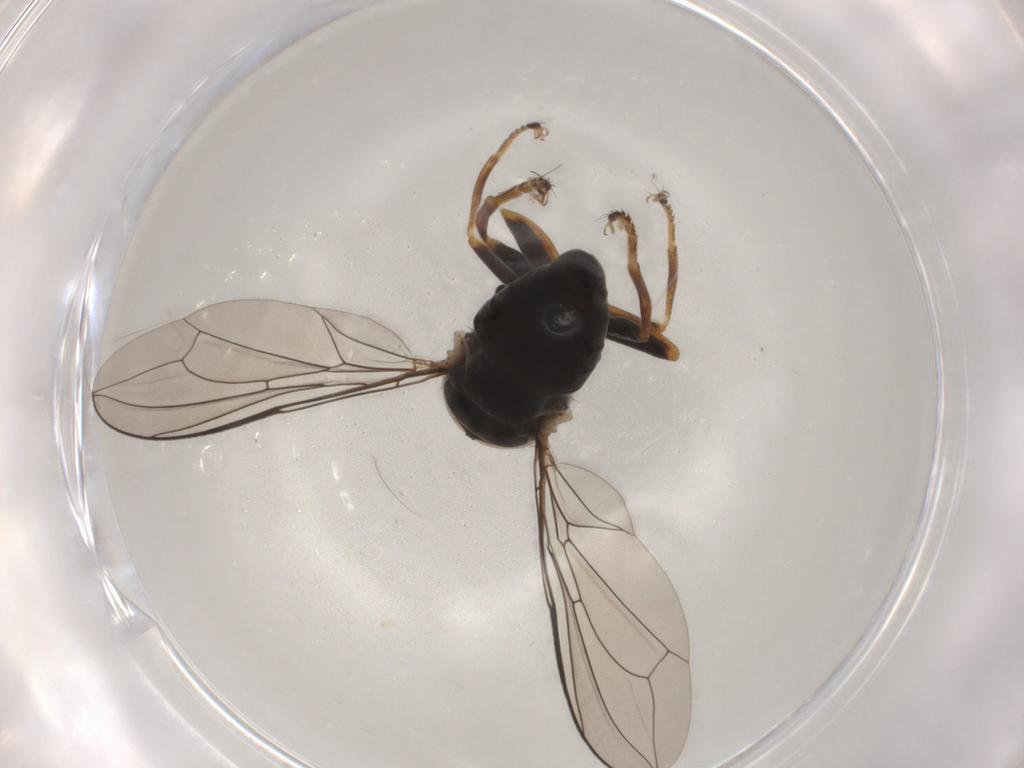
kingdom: Animalia
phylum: Arthropoda
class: Insecta
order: Diptera
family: Pipunculidae
